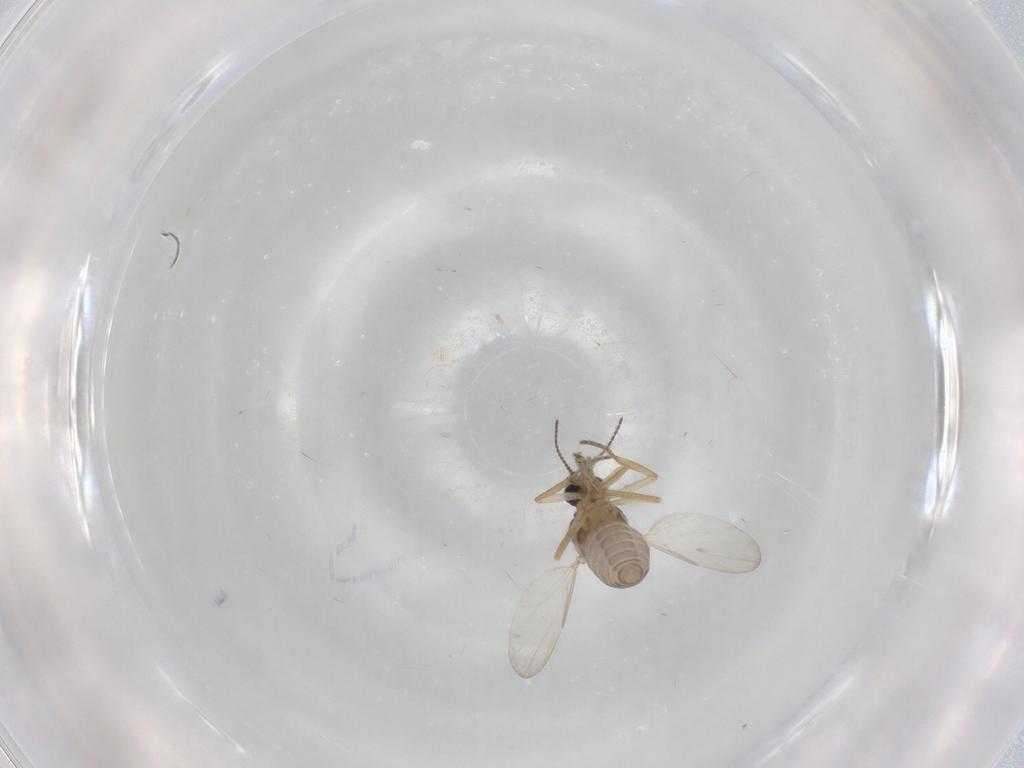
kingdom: Animalia
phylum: Arthropoda
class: Insecta
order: Diptera
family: Ceratopogonidae
